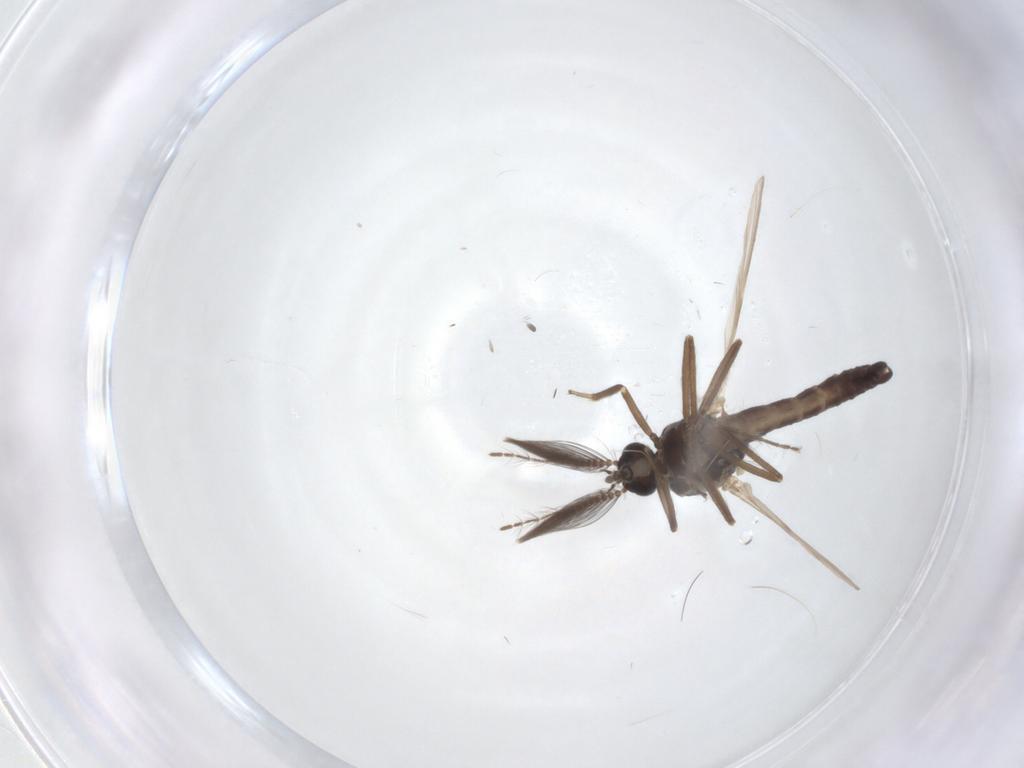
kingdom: Animalia
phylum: Arthropoda
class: Insecta
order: Diptera
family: Ceratopogonidae
